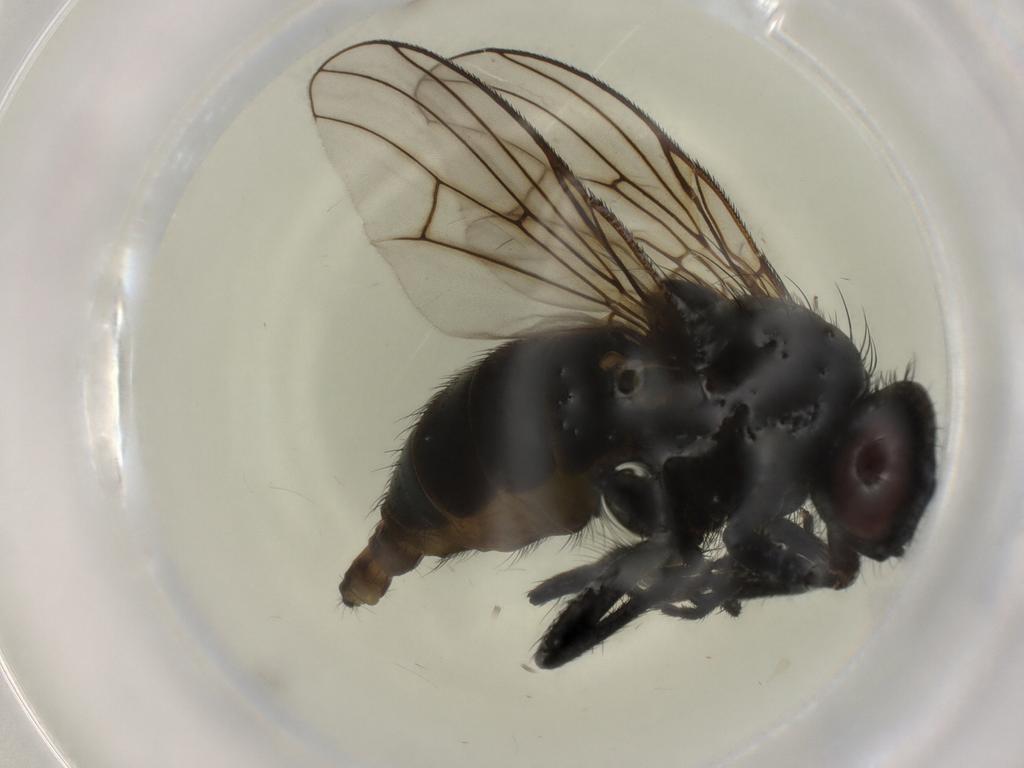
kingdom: Animalia
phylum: Arthropoda
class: Insecta
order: Diptera
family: Muscidae
